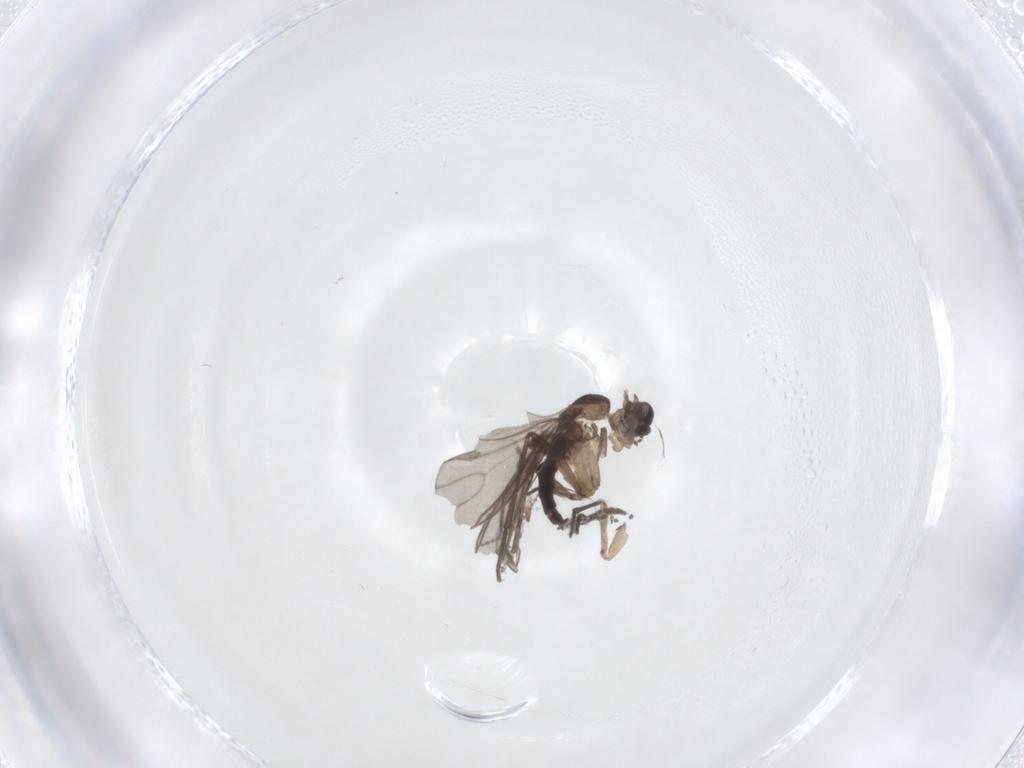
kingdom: Animalia
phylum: Arthropoda
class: Insecta
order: Diptera
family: Sciaridae
